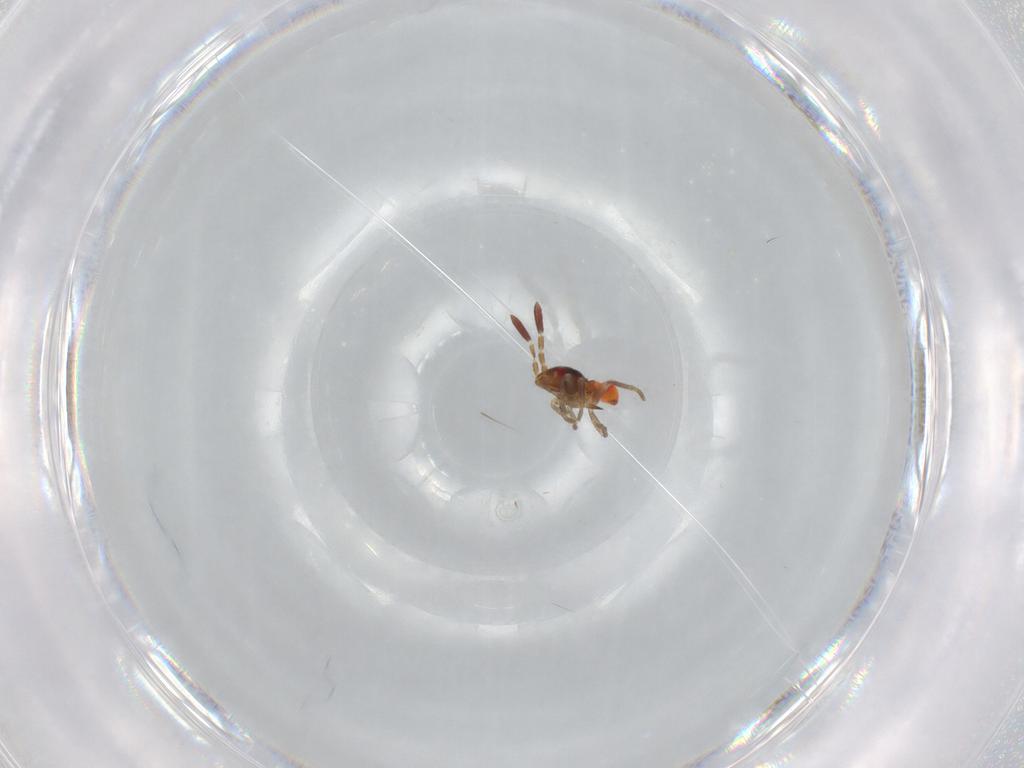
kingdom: Animalia
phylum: Arthropoda
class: Insecta
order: Hemiptera
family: Rhyparochromidae
